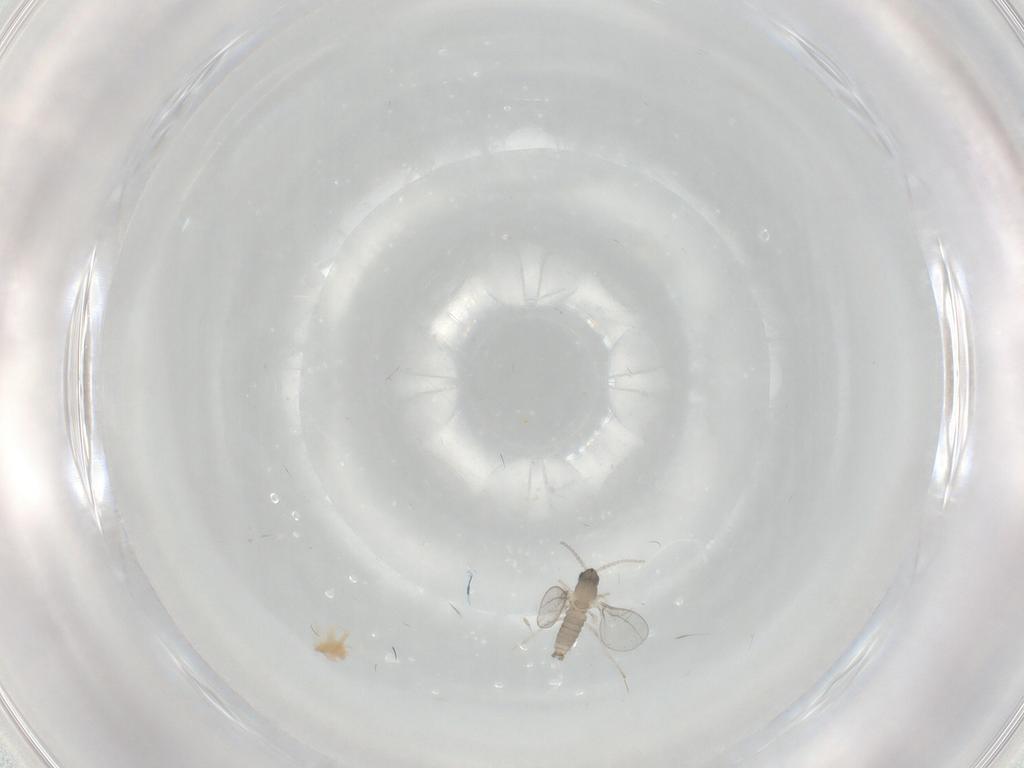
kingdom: Animalia
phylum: Arthropoda
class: Insecta
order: Diptera
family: Cecidomyiidae
